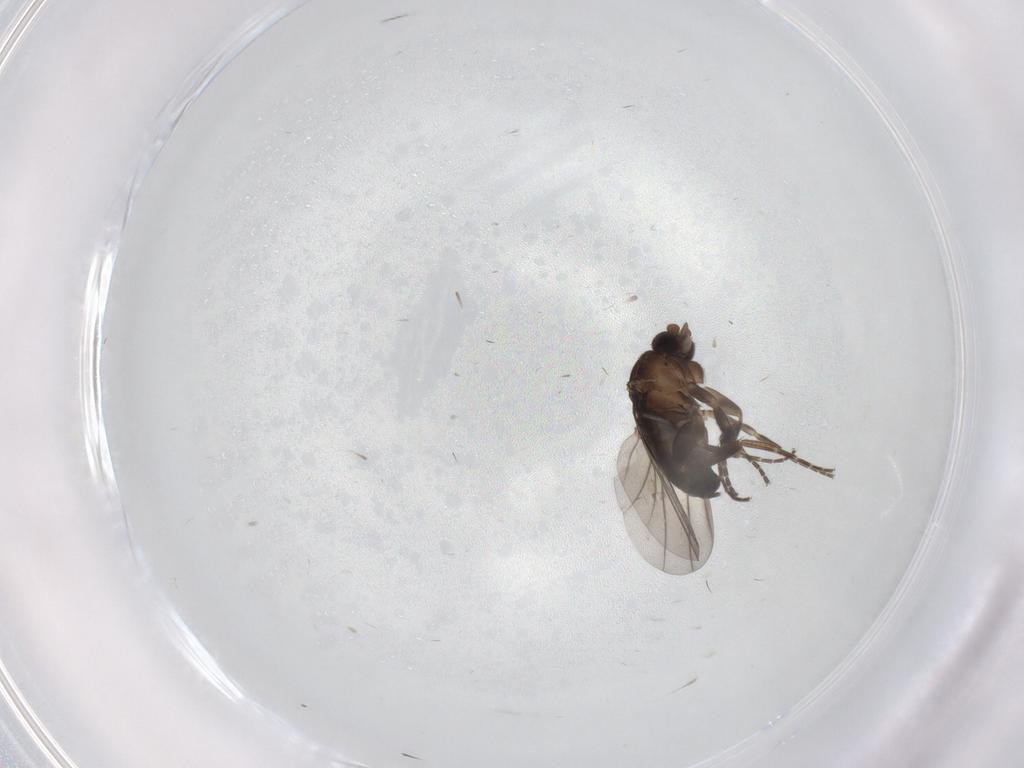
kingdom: Animalia
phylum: Arthropoda
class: Insecta
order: Diptera
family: Phoridae
